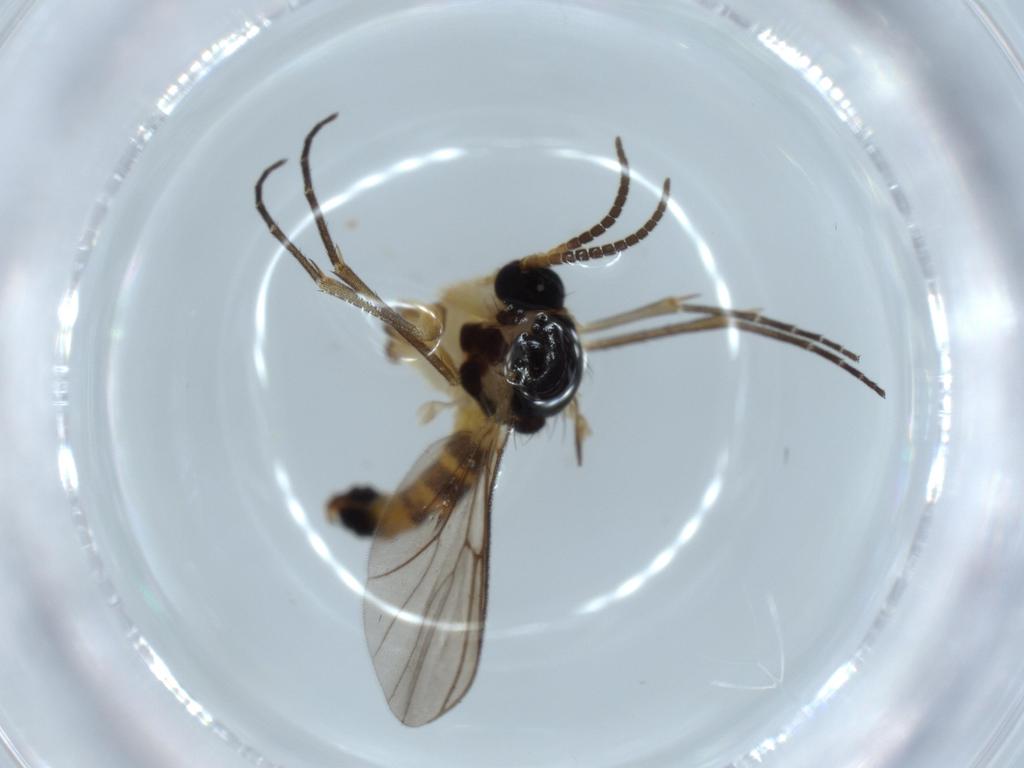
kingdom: Animalia
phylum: Arthropoda
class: Insecta
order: Diptera
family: Mycetophilidae
